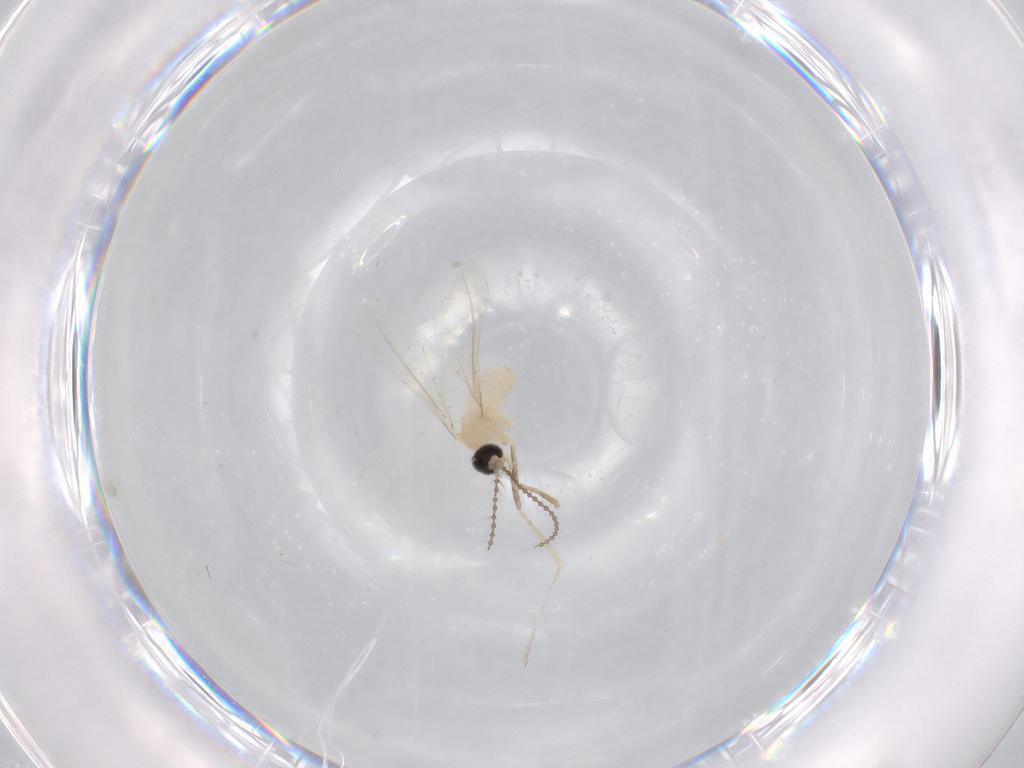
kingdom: Animalia
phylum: Arthropoda
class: Insecta
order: Diptera
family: Cecidomyiidae
